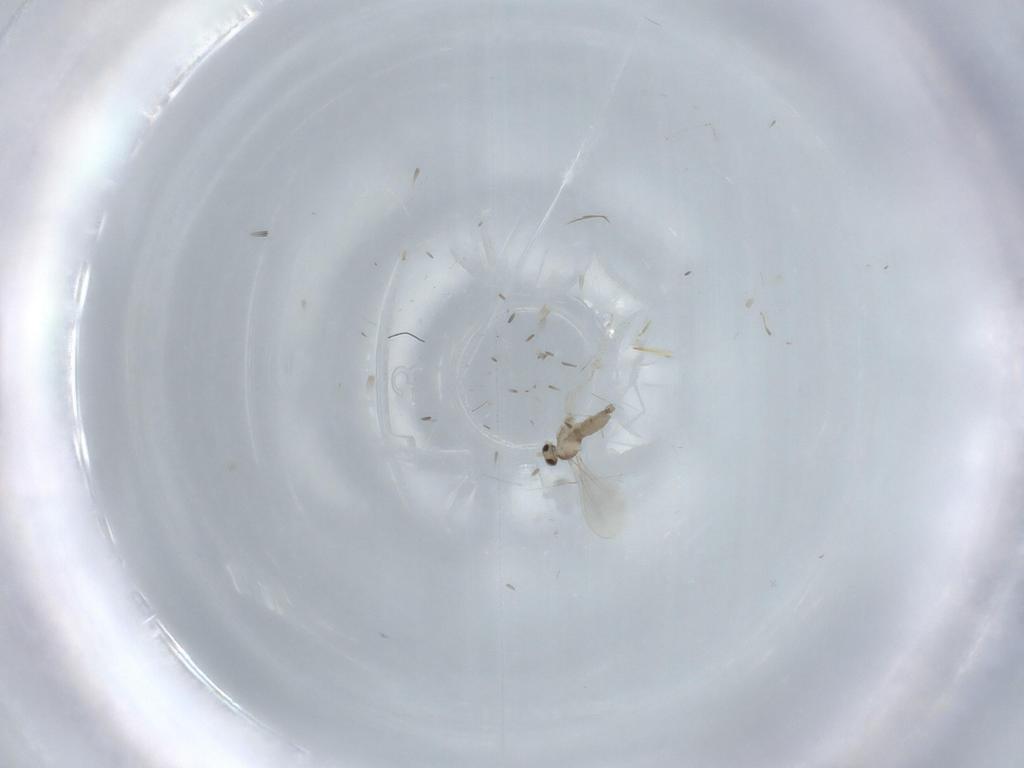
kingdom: Animalia
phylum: Arthropoda
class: Insecta
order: Diptera
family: Cecidomyiidae
